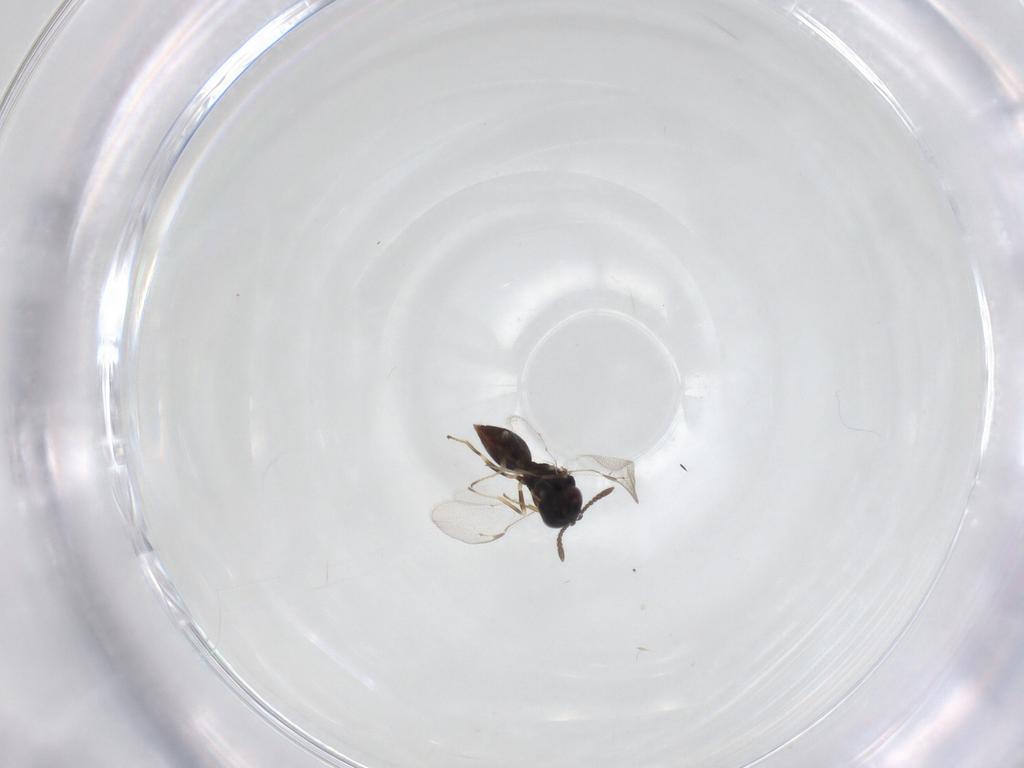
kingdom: Animalia
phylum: Arthropoda
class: Insecta
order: Hymenoptera
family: Pteromalidae
